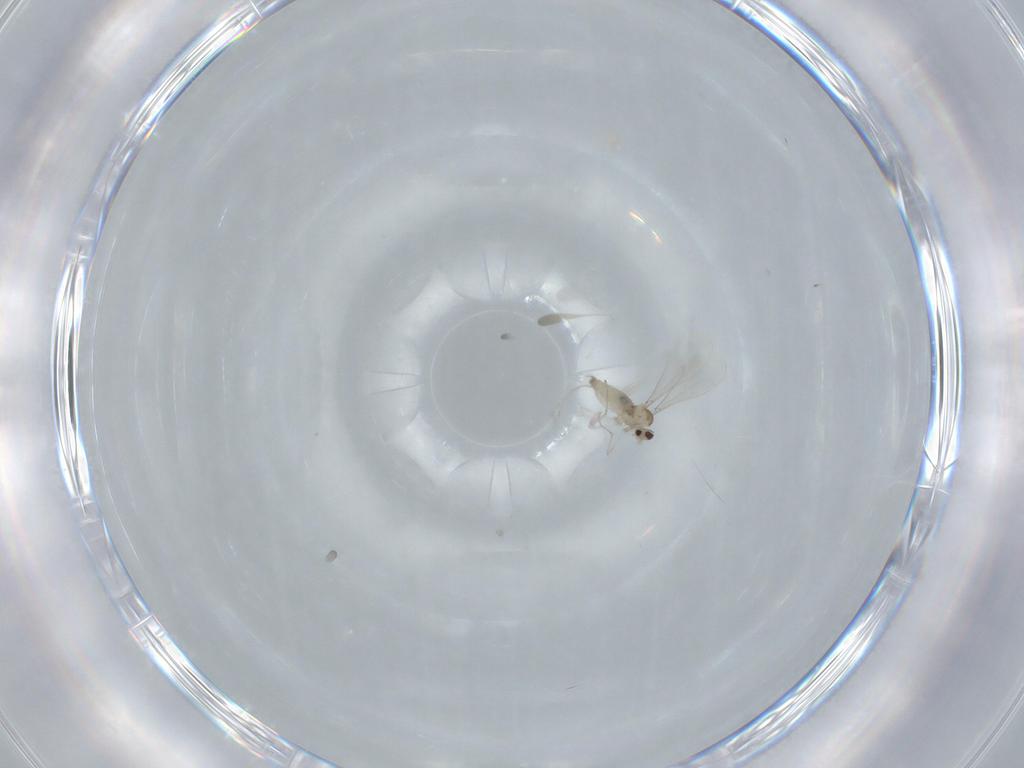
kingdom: Animalia
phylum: Arthropoda
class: Insecta
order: Diptera
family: Cecidomyiidae
